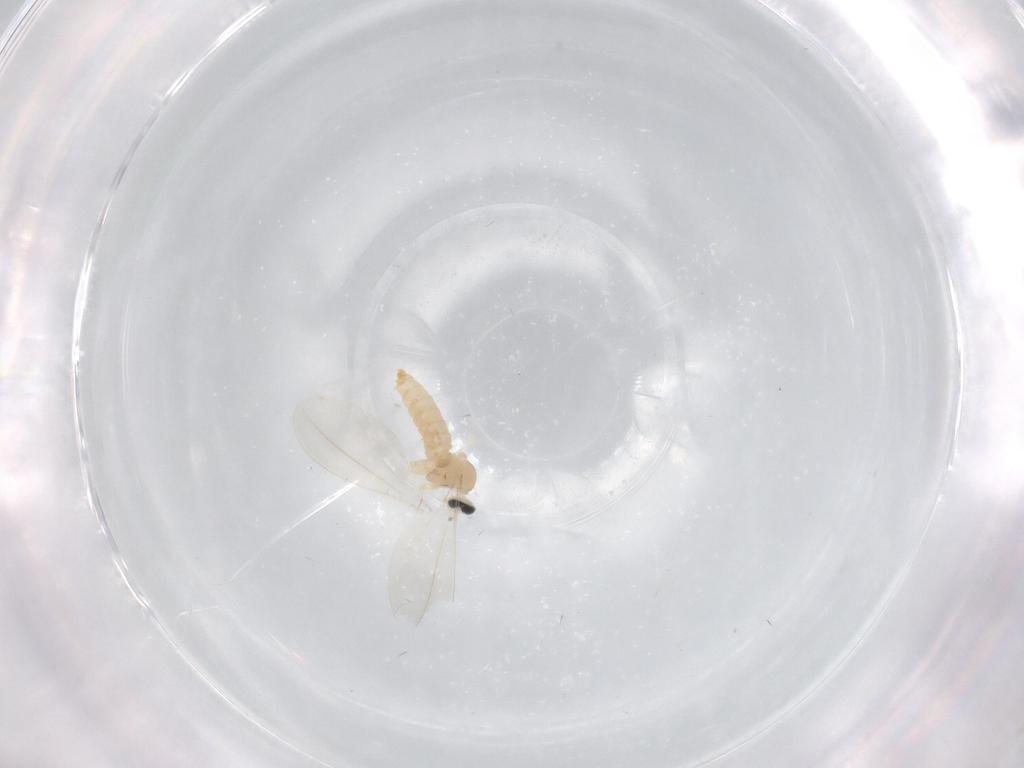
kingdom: Animalia
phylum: Arthropoda
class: Insecta
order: Diptera
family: Cecidomyiidae
